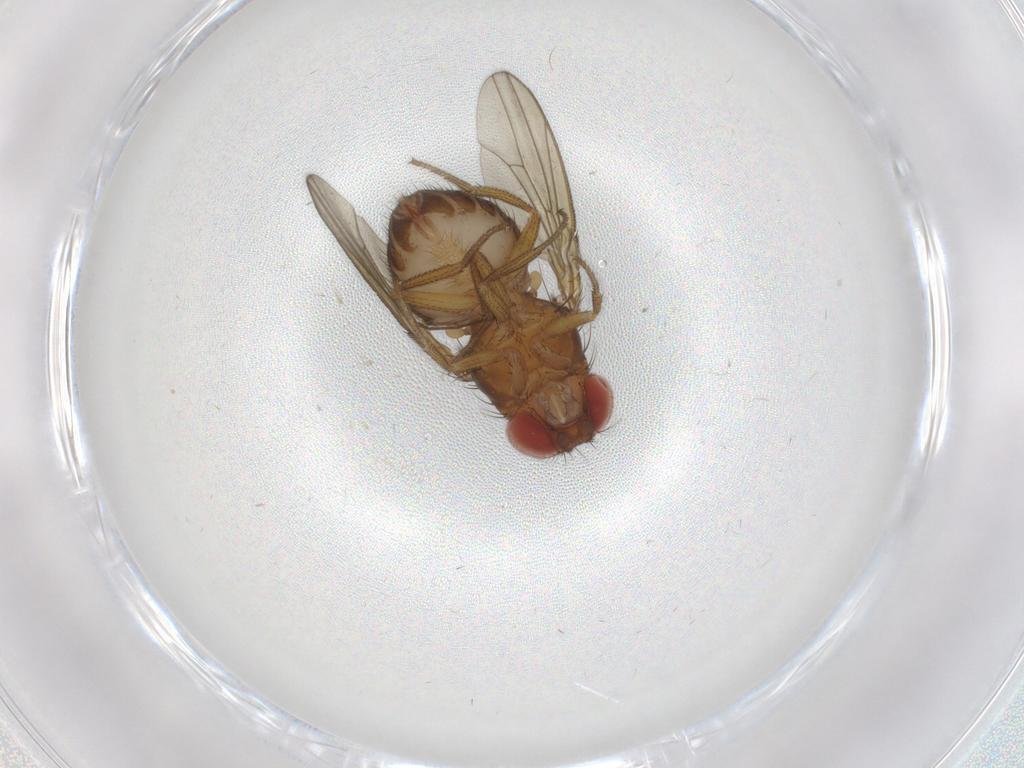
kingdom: Animalia
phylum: Arthropoda
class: Insecta
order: Diptera
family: Drosophilidae
